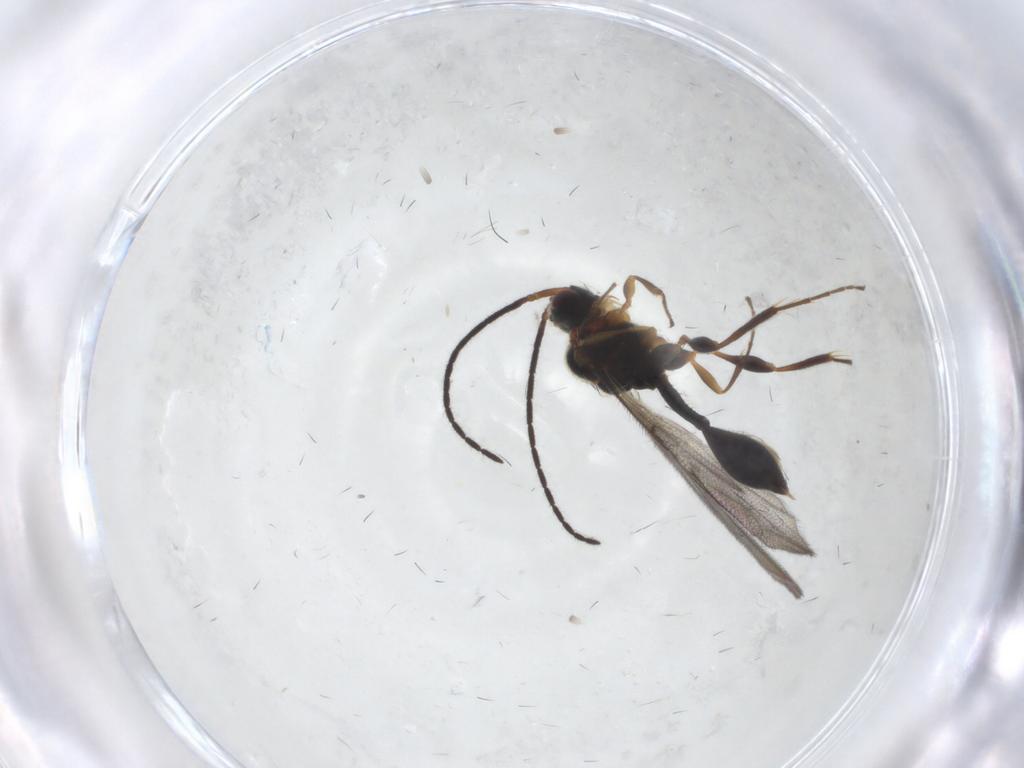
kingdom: Animalia
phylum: Arthropoda
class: Insecta
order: Hymenoptera
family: Diapriidae
